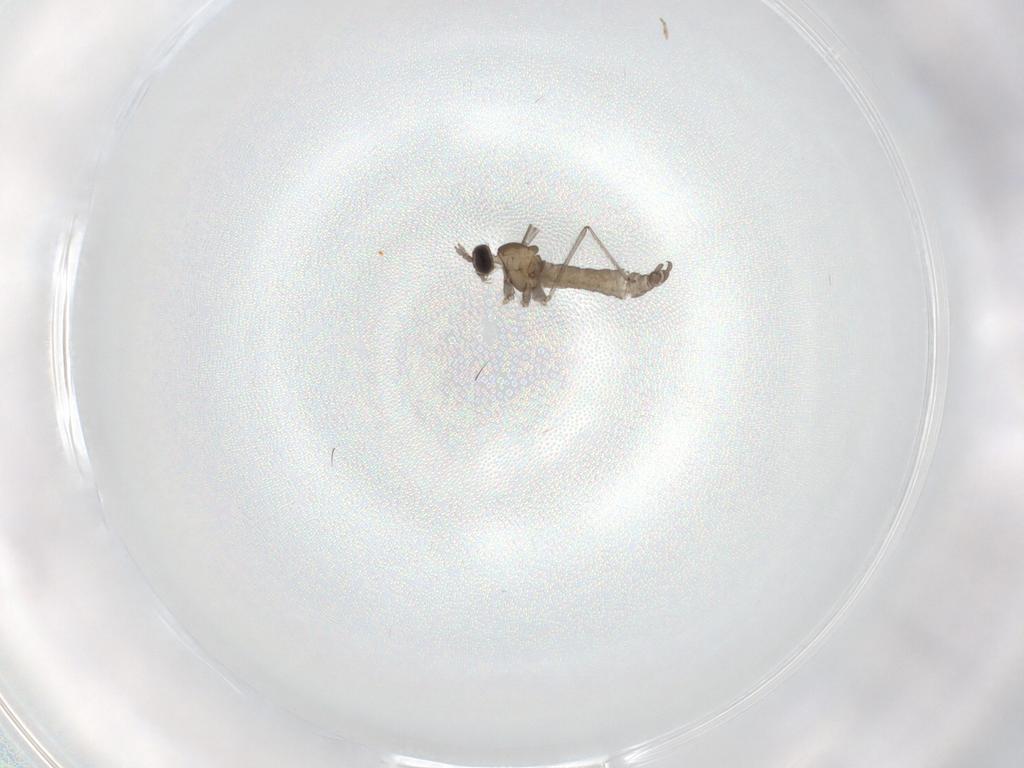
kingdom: Animalia
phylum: Arthropoda
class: Insecta
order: Diptera
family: Cecidomyiidae
